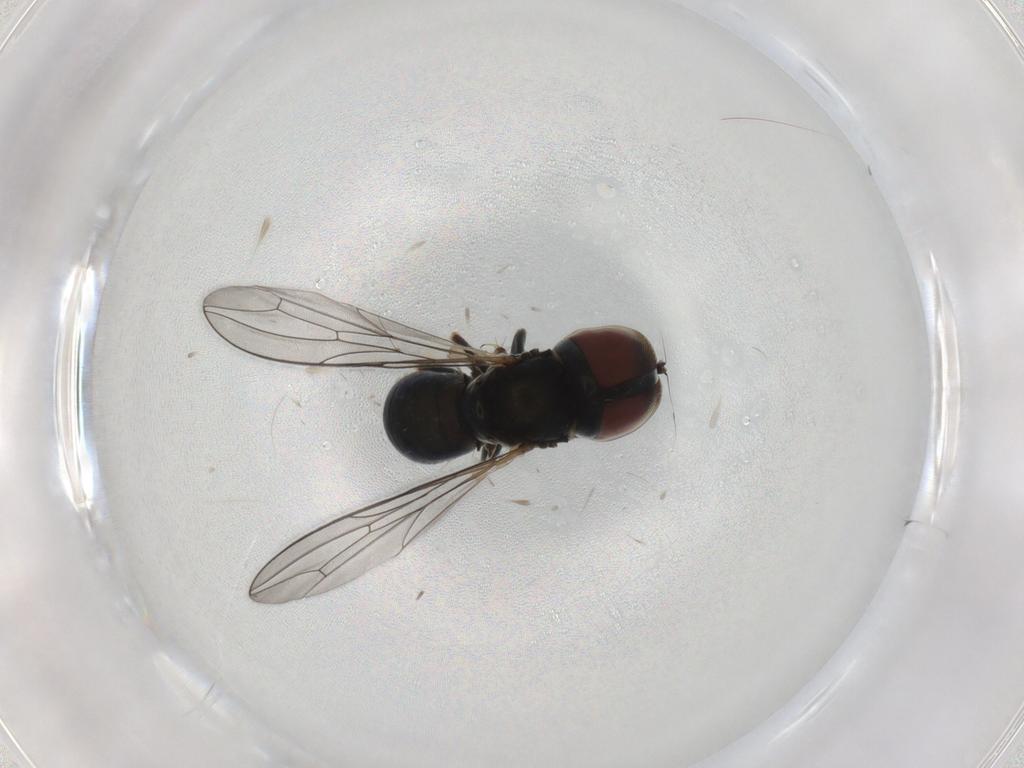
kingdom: Animalia
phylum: Arthropoda
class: Insecta
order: Diptera
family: Pipunculidae
